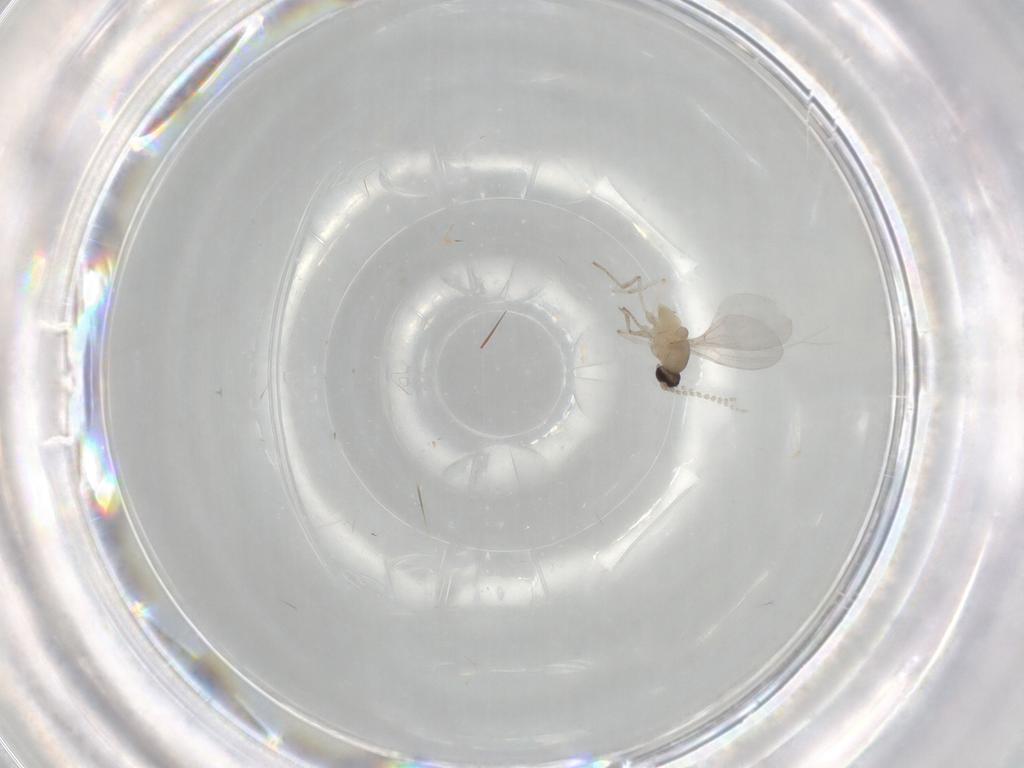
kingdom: Animalia
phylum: Arthropoda
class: Insecta
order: Diptera
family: Cecidomyiidae
